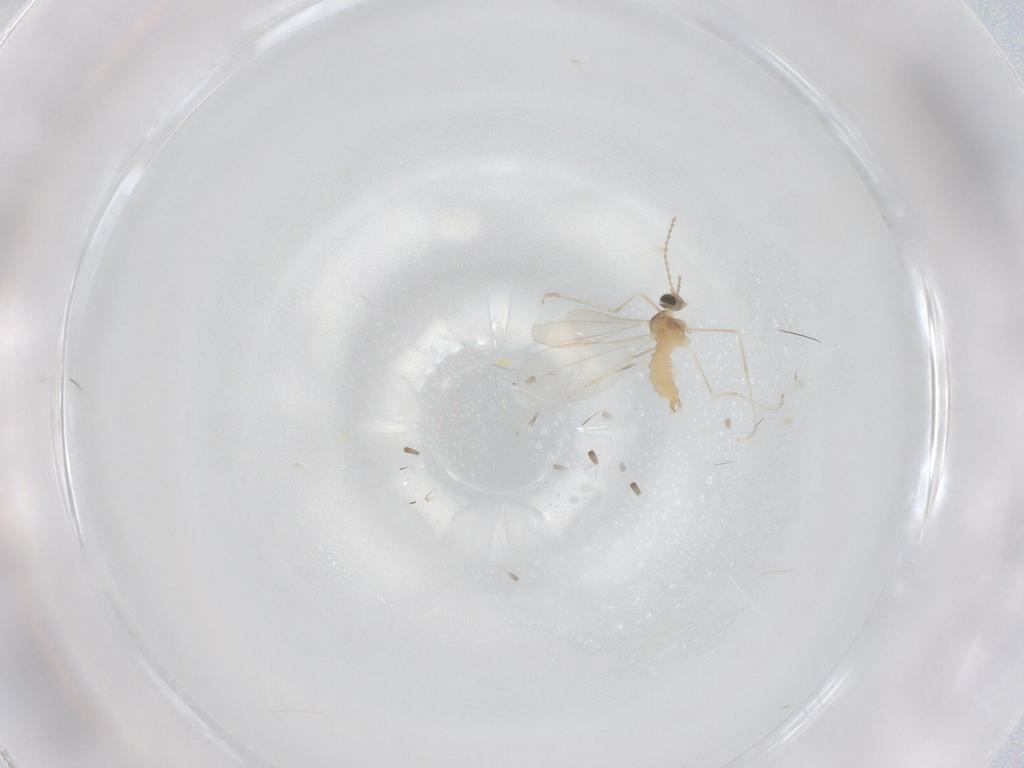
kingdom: Animalia
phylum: Arthropoda
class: Insecta
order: Diptera
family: Cecidomyiidae
